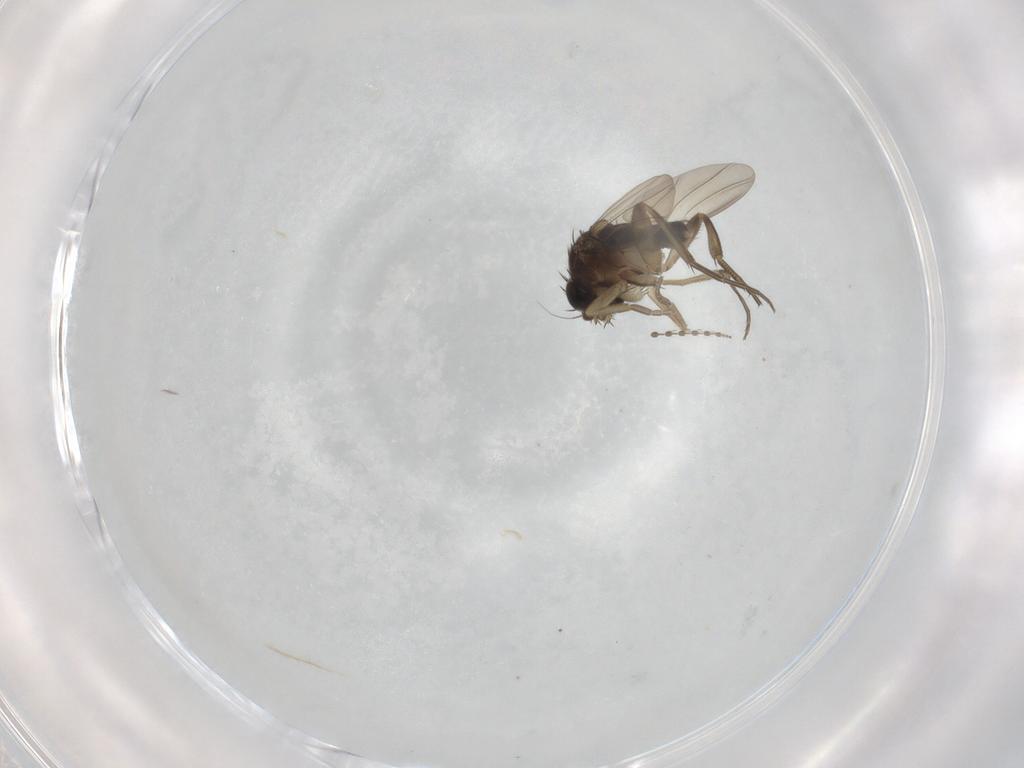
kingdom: Animalia
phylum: Arthropoda
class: Insecta
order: Diptera
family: Phoridae
